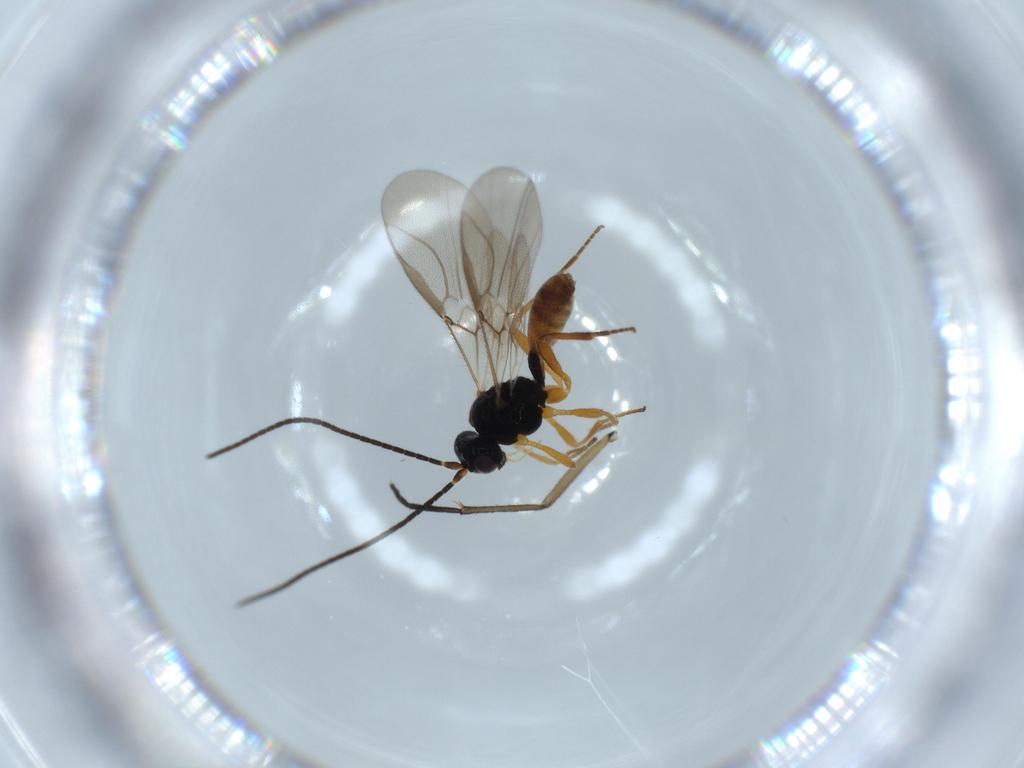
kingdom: Animalia
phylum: Arthropoda
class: Insecta
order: Hymenoptera
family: Braconidae
